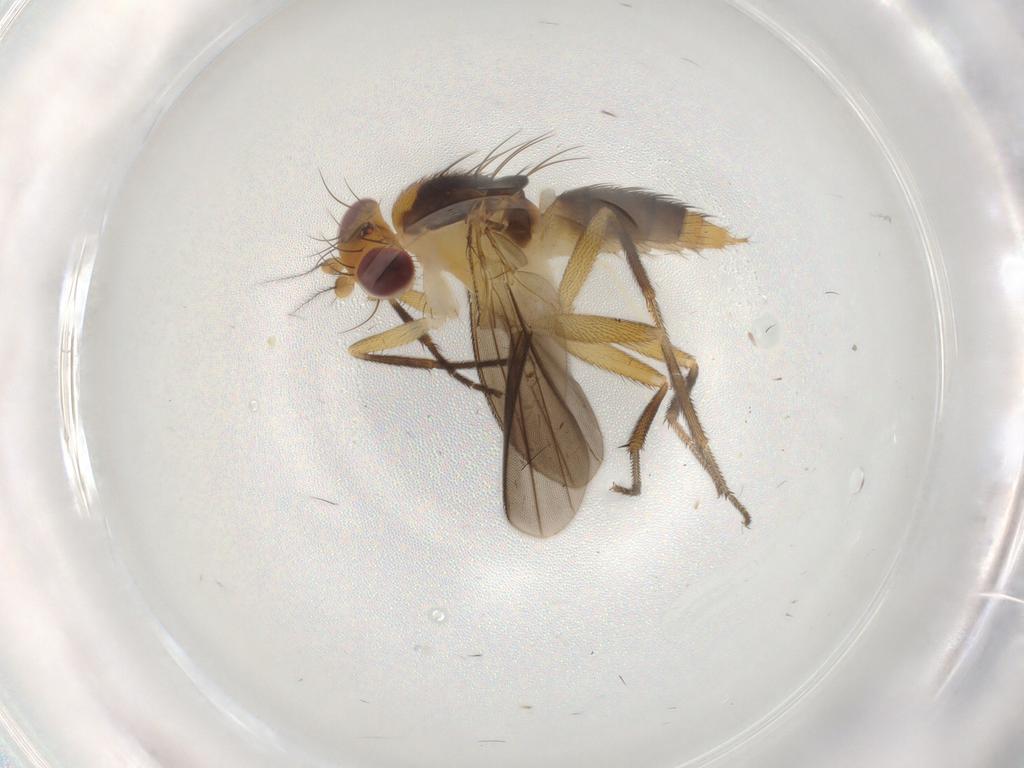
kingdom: Animalia
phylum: Arthropoda
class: Insecta
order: Diptera
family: Clusiidae
